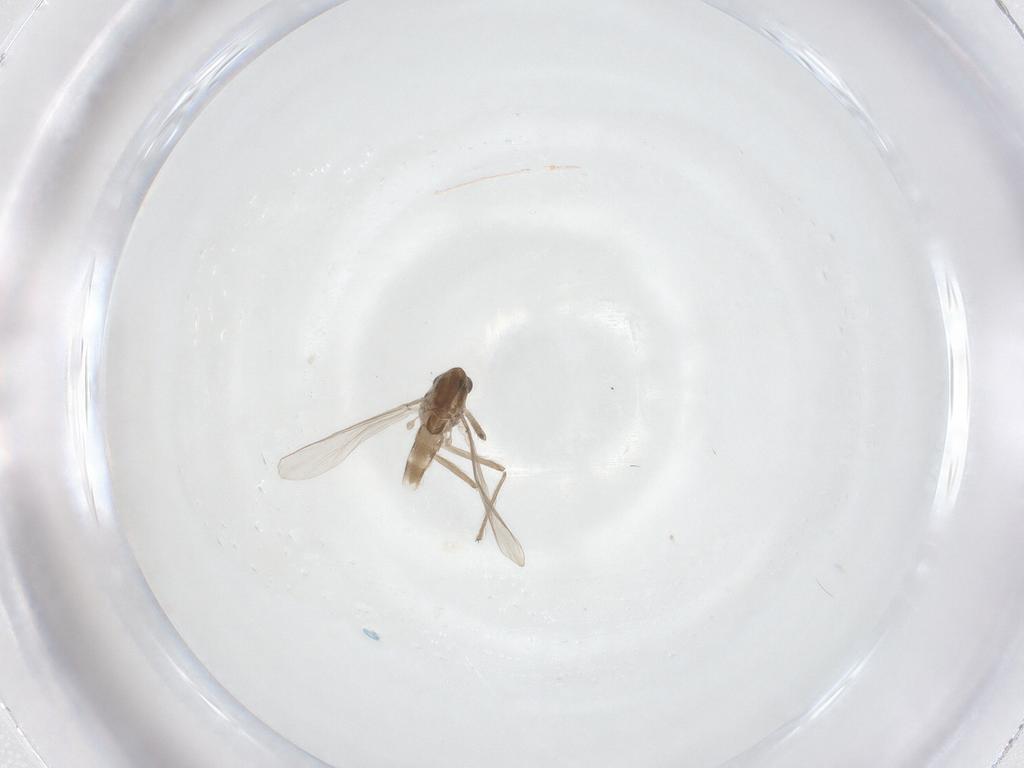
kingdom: Animalia
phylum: Arthropoda
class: Insecta
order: Diptera
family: Chironomidae
